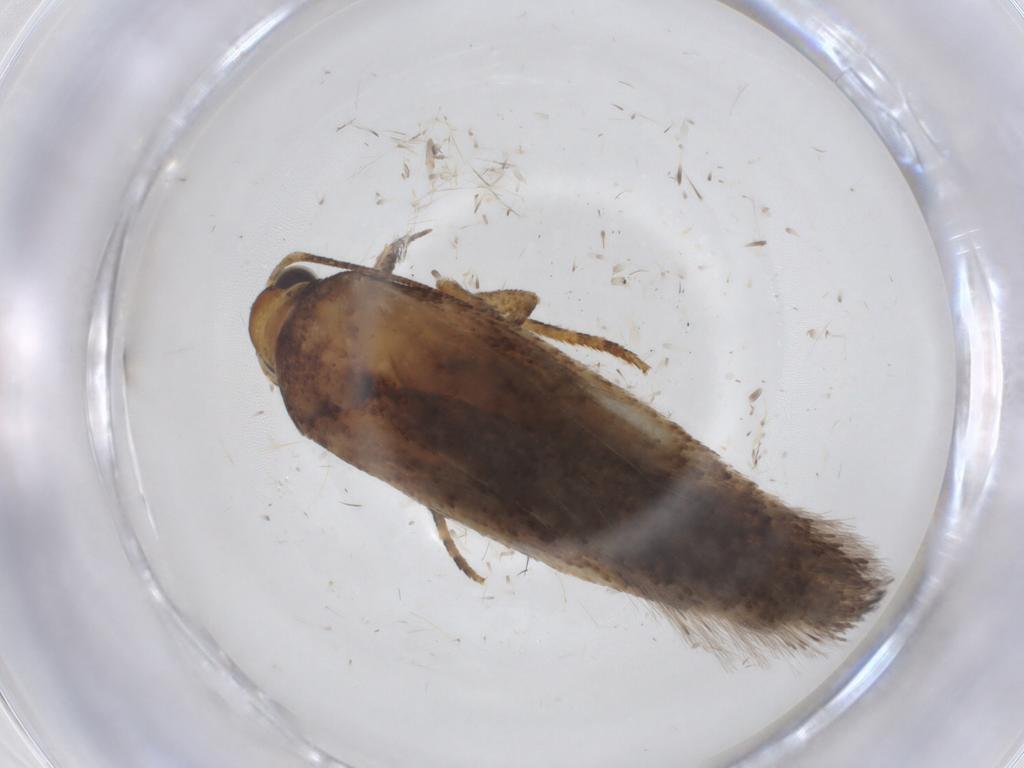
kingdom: Animalia
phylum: Arthropoda
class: Insecta
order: Lepidoptera
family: Gelechiidae
